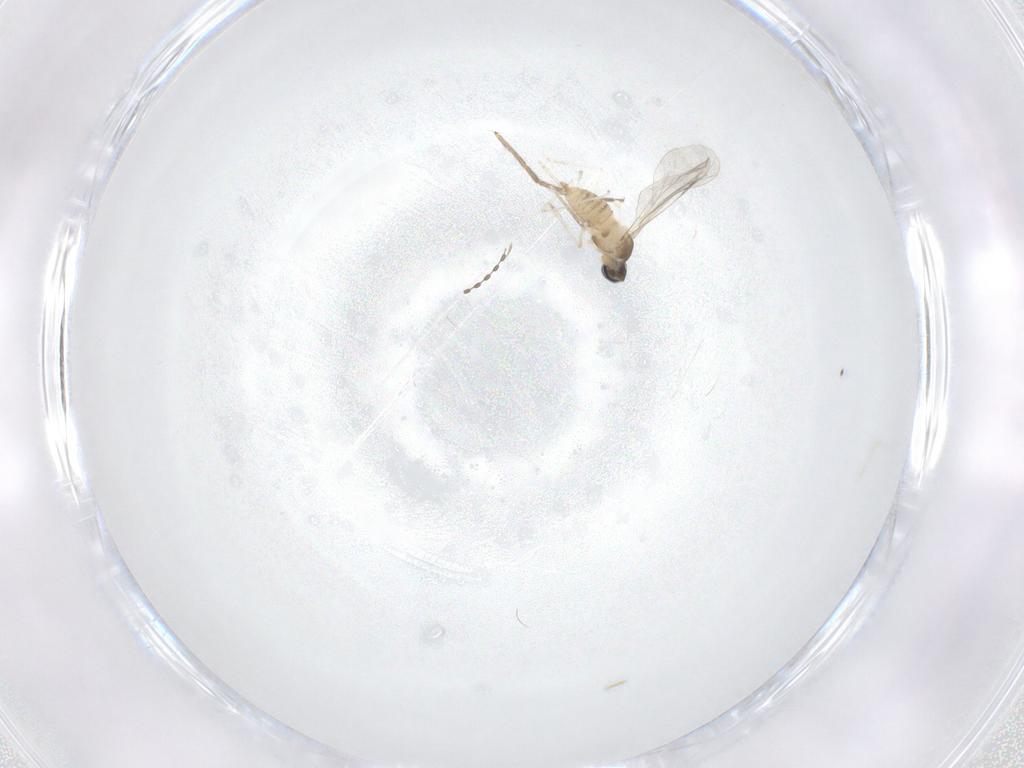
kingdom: Animalia
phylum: Arthropoda
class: Insecta
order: Diptera
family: Cecidomyiidae
